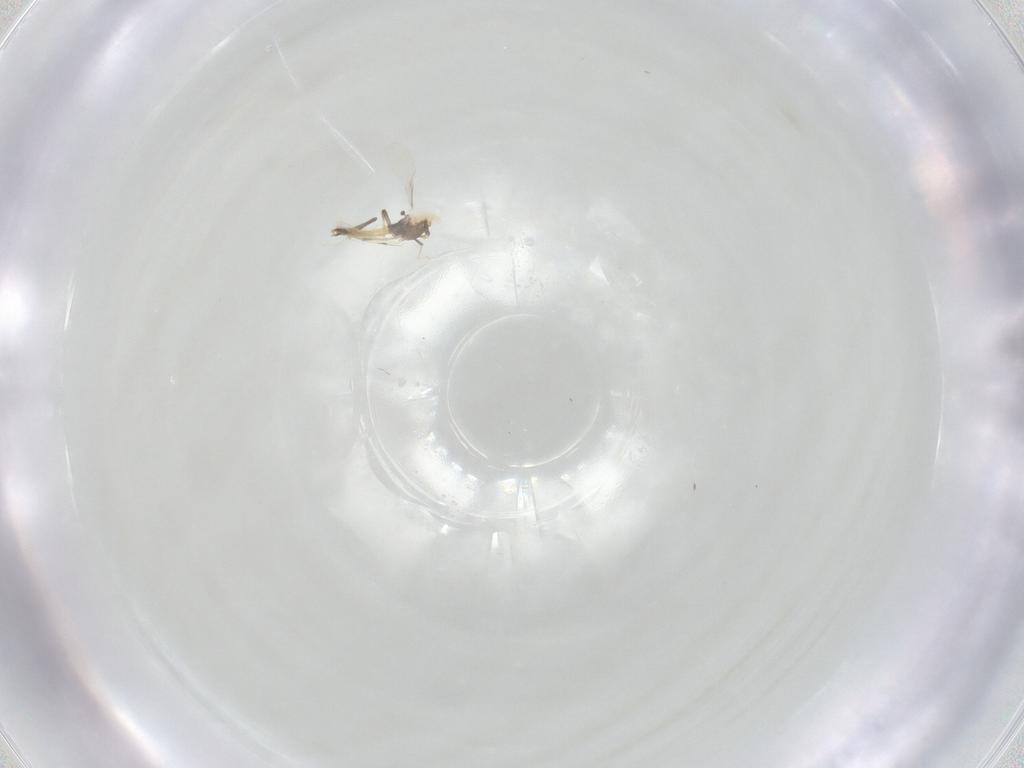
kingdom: Animalia
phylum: Arthropoda
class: Insecta
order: Diptera
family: Chironomidae
